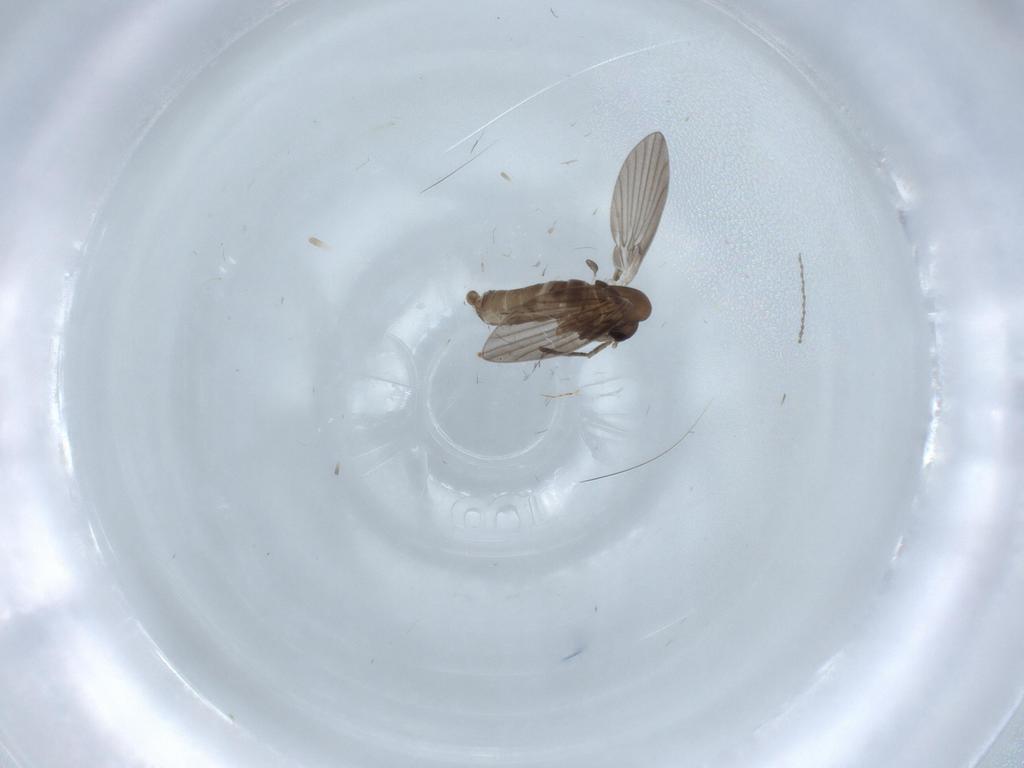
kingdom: Animalia
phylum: Arthropoda
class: Insecta
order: Diptera
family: Psychodidae
